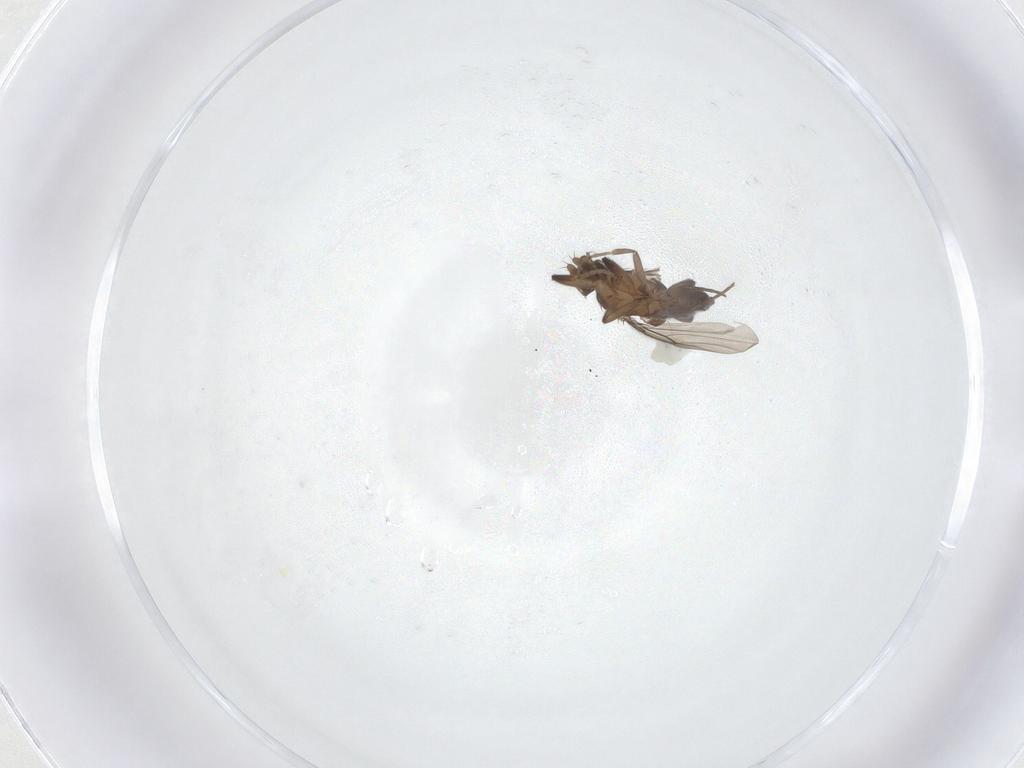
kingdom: Animalia
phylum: Arthropoda
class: Insecta
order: Diptera
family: Phoridae
